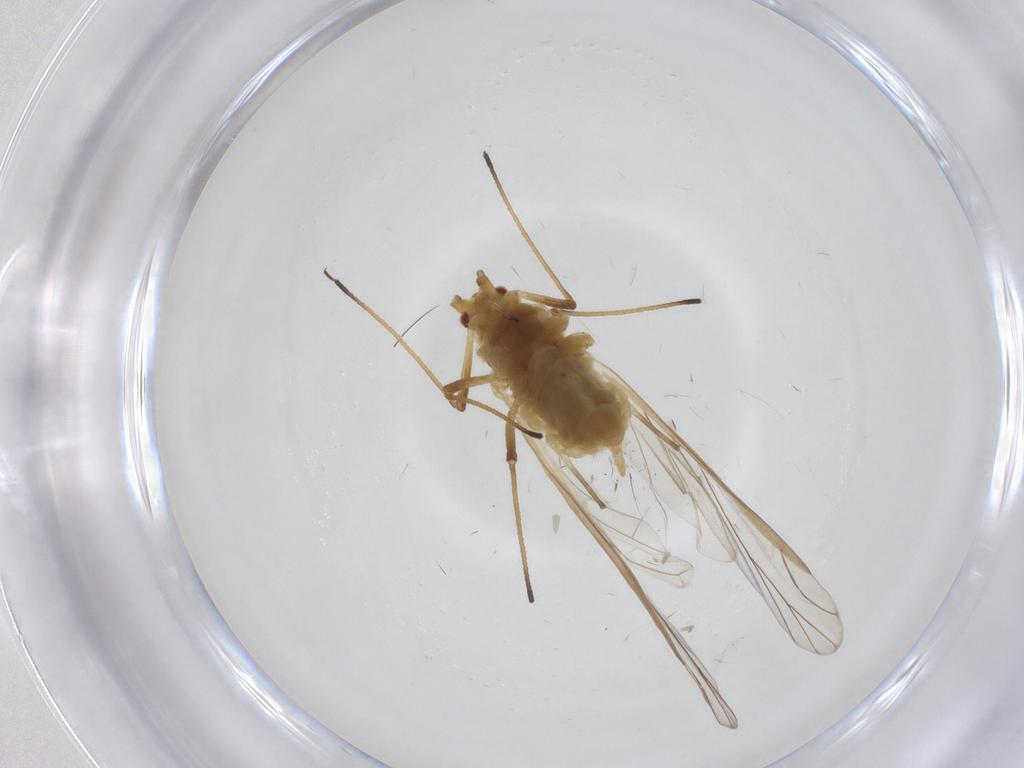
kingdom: Animalia
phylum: Arthropoda
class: Insecta
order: Hemiptera
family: Aphididae
